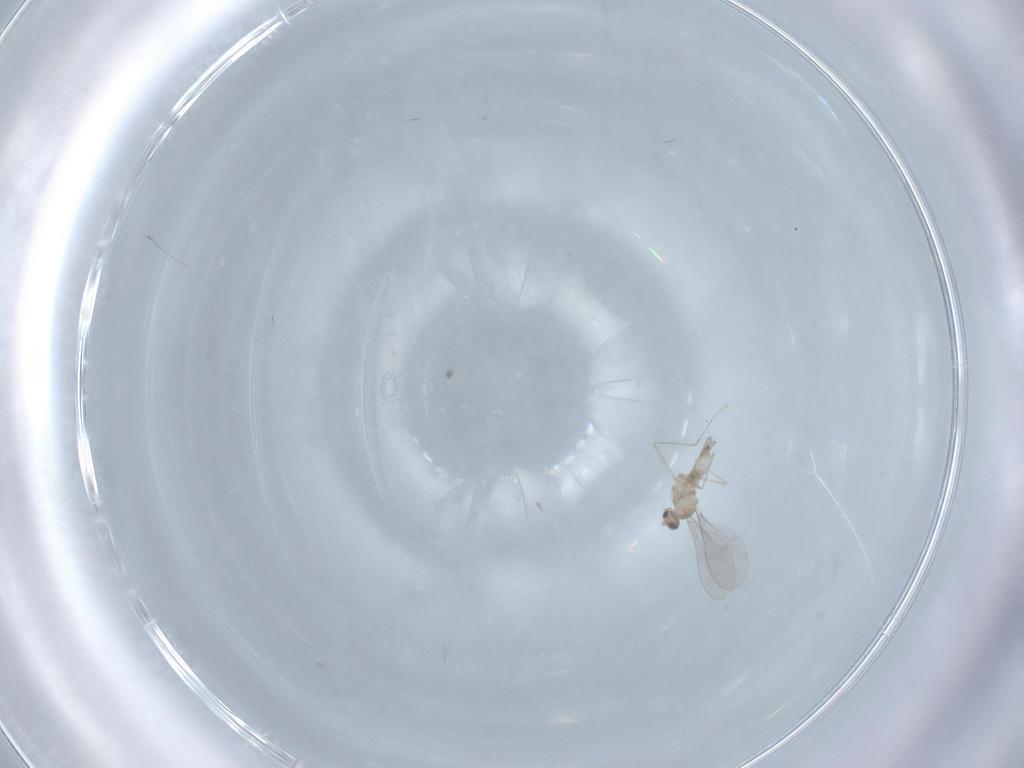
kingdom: Animalia
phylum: Arthropoda
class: Insecta
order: Diptera
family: Cecidomyiidae
